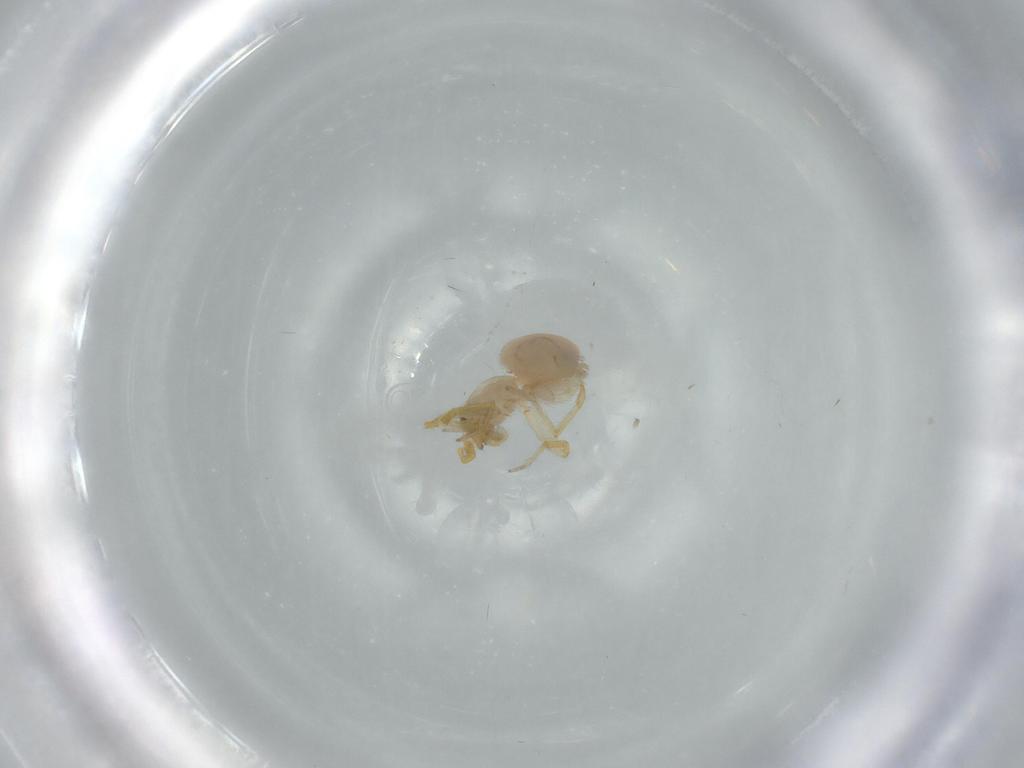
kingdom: Animalia
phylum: Arthropoda
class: Arachnida
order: Araneae
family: Oonopidae
